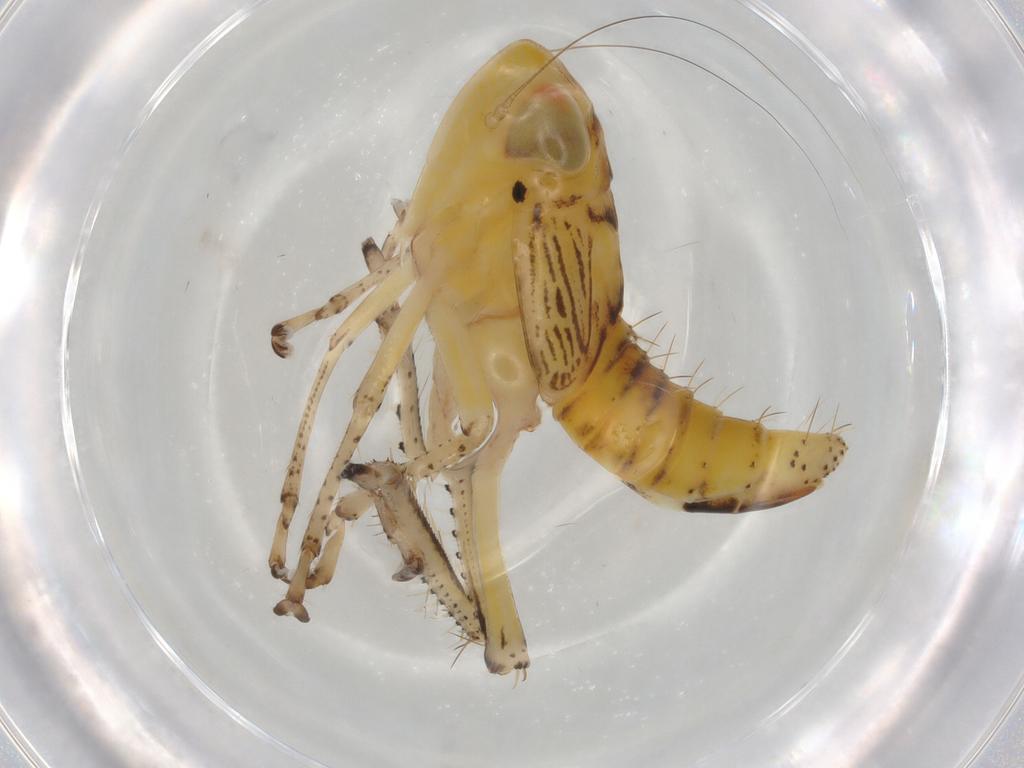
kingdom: Animalia
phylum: Arthropoda
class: Insecta
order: Hemiptera
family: Cicadellidae
